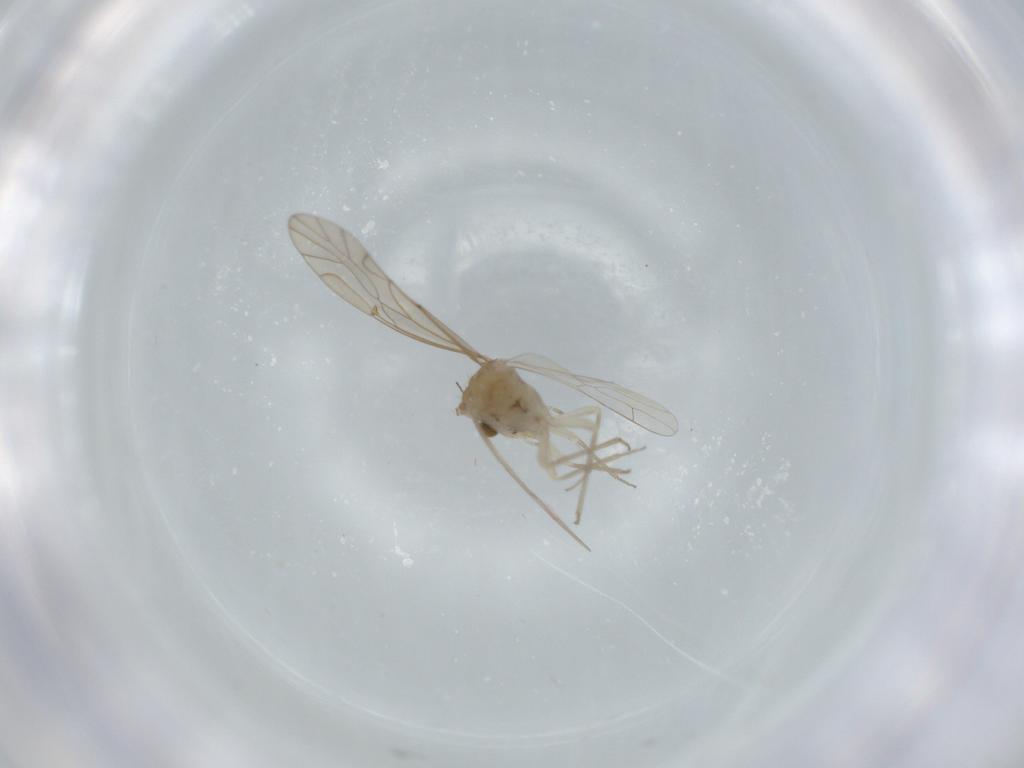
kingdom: Animalia
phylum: Arthropoda
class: Insecta
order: Psocodea
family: Lachesillidae
